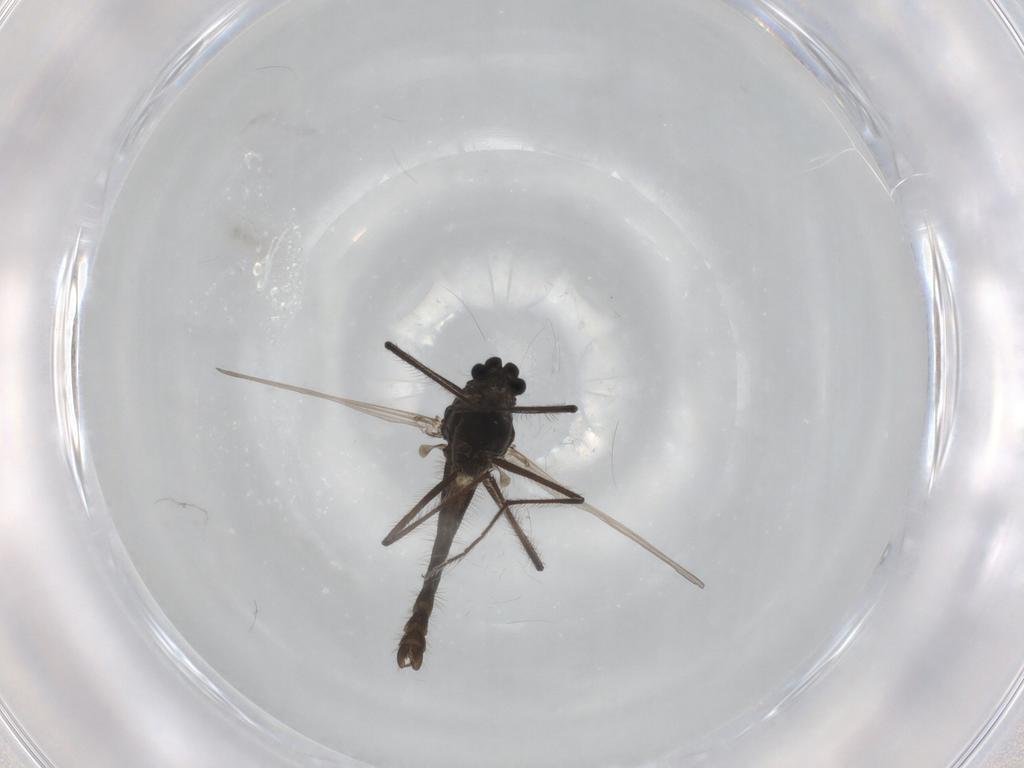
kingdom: Animalia
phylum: Arthropoda
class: Insecta
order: Diptera
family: Chironomidae
